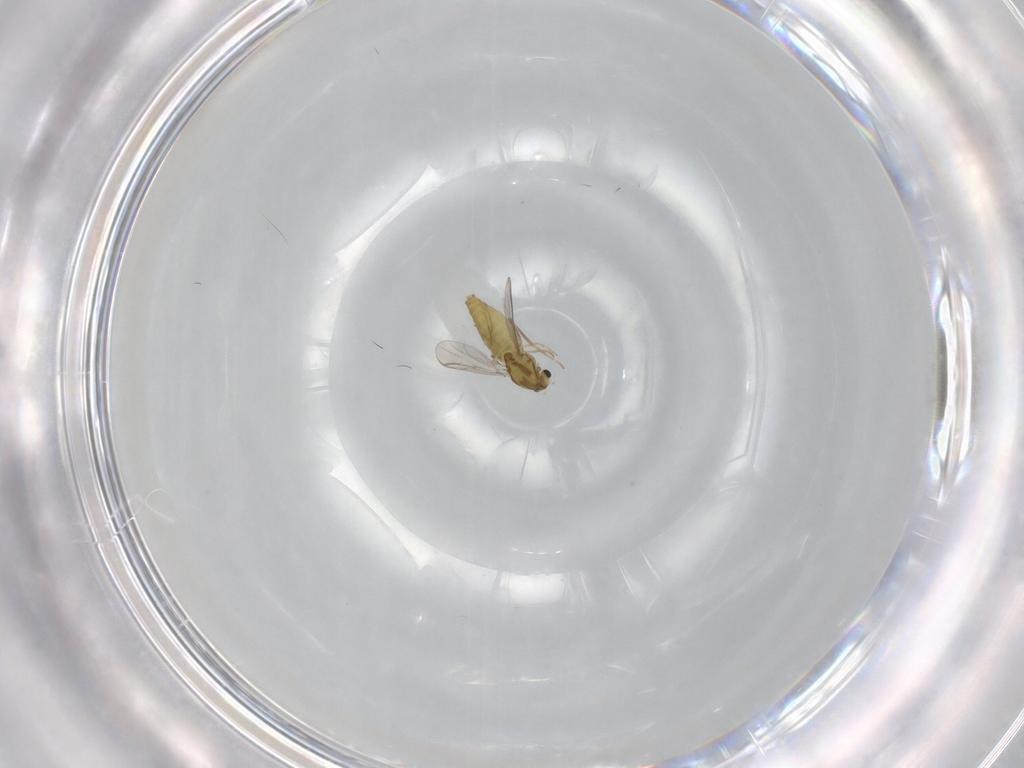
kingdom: Animalia
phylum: Arthropoda
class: Insecta
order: Diptera
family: Chironomidae
